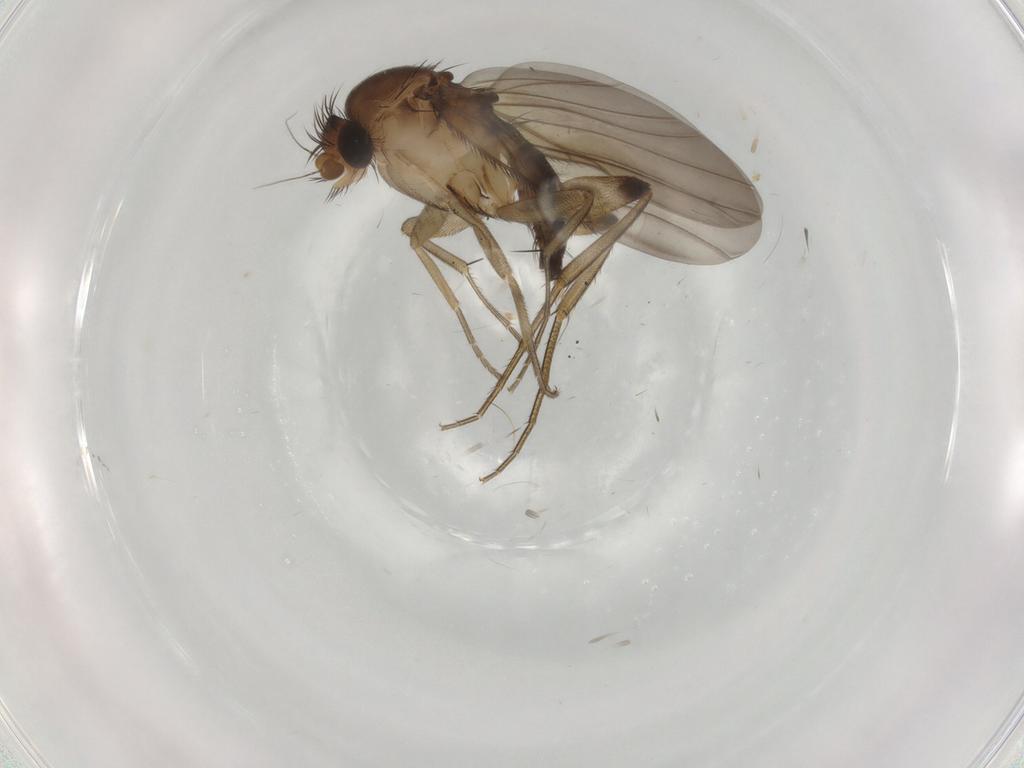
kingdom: Animalia
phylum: Arthropoda
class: Insecta
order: Diptera
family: Phoridae
